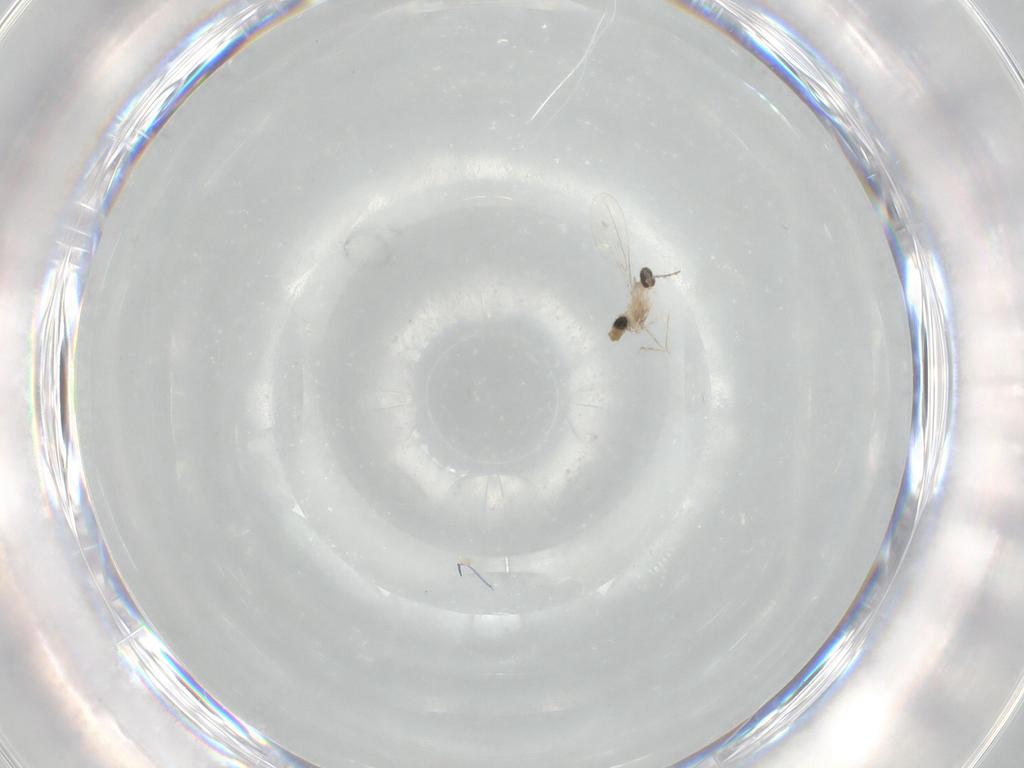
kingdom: Animalia
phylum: Arthropoda
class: Insecta
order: Diptera
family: Cecidomyiidae
